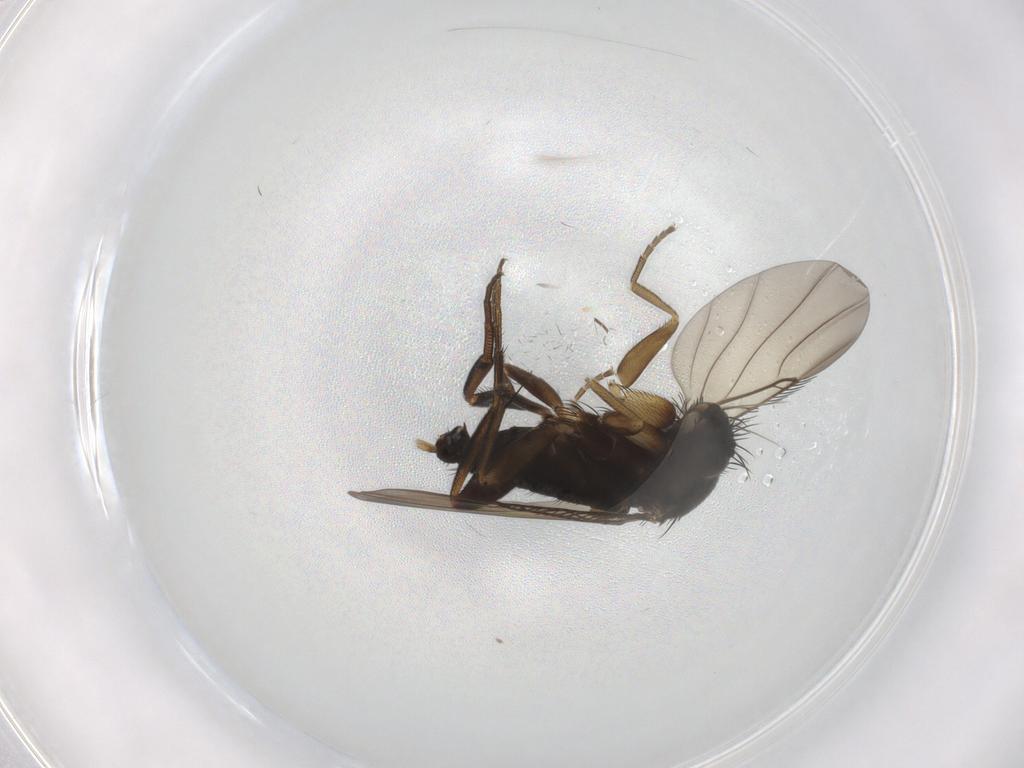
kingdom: Animalia
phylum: Arthropoda
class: Insecta
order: Diptera
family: Phoridae
